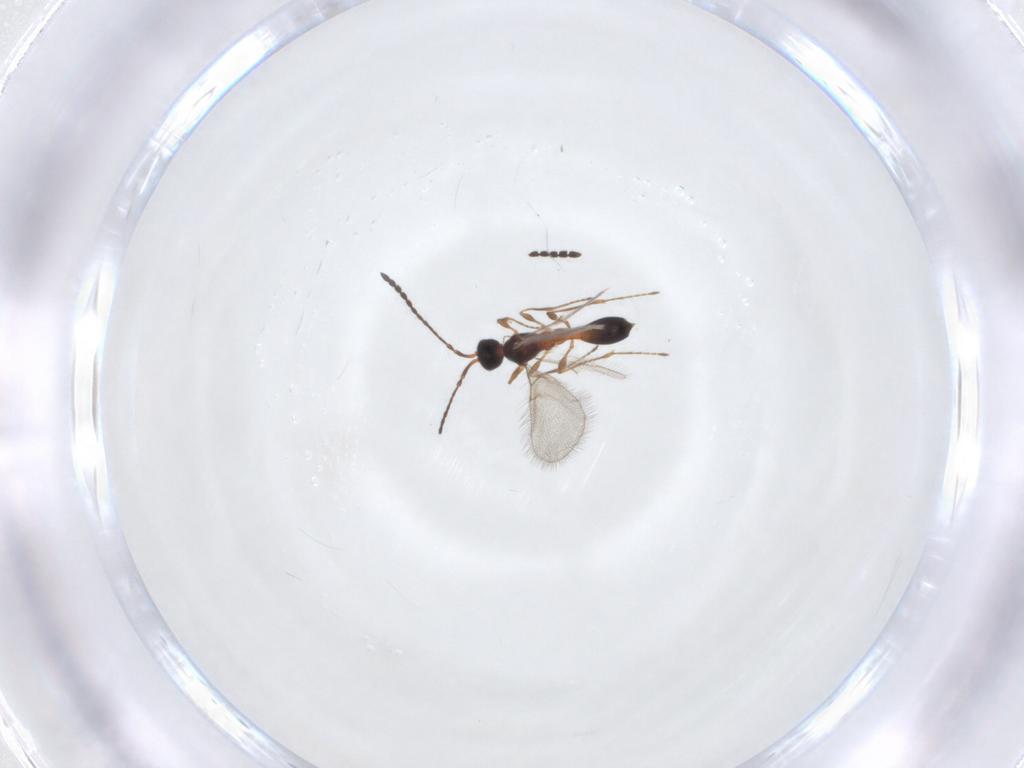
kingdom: Animalia
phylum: Arthropoda
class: Insecta
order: Hymenoptera
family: Diapriidae
